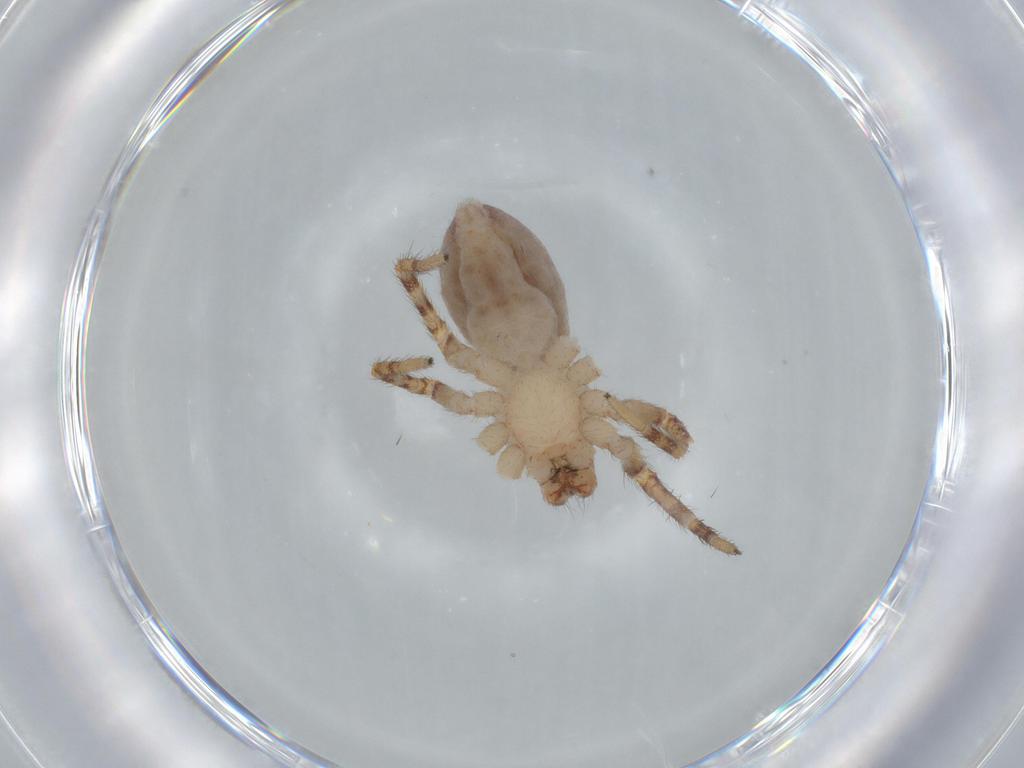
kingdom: Animalia
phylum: Arthropoda
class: Arachnida
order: Araneae
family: Corinnidae
